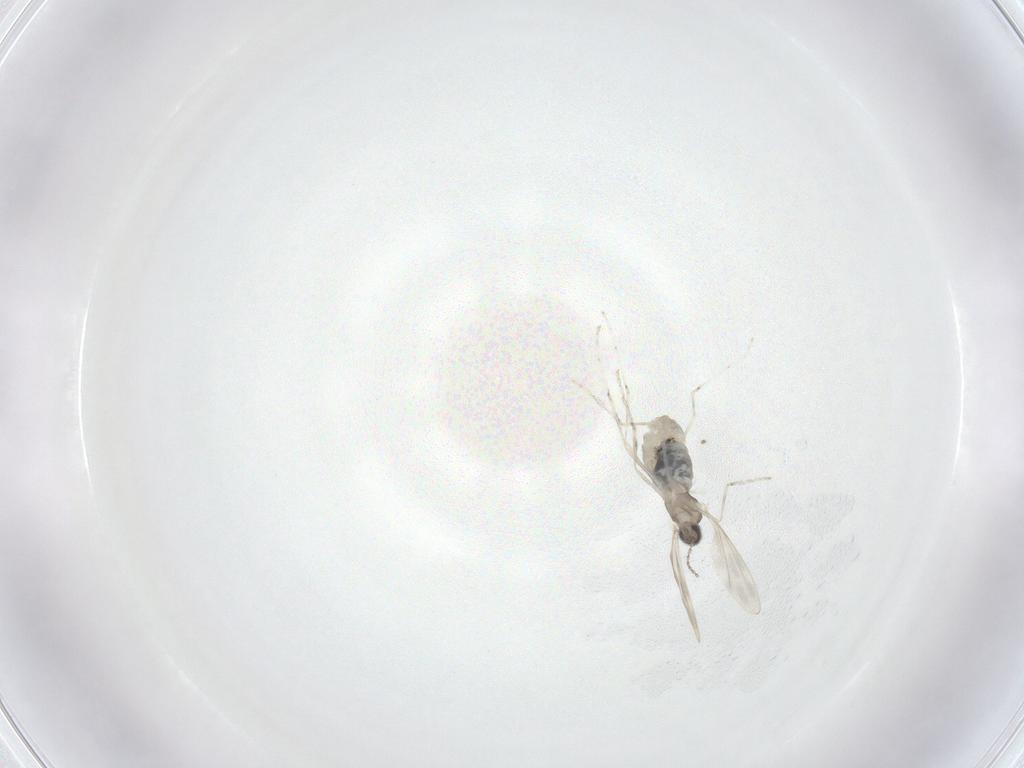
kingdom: Animalia
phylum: Arthropoda
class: Insecta
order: Diptera
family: Cecidomyiidae
